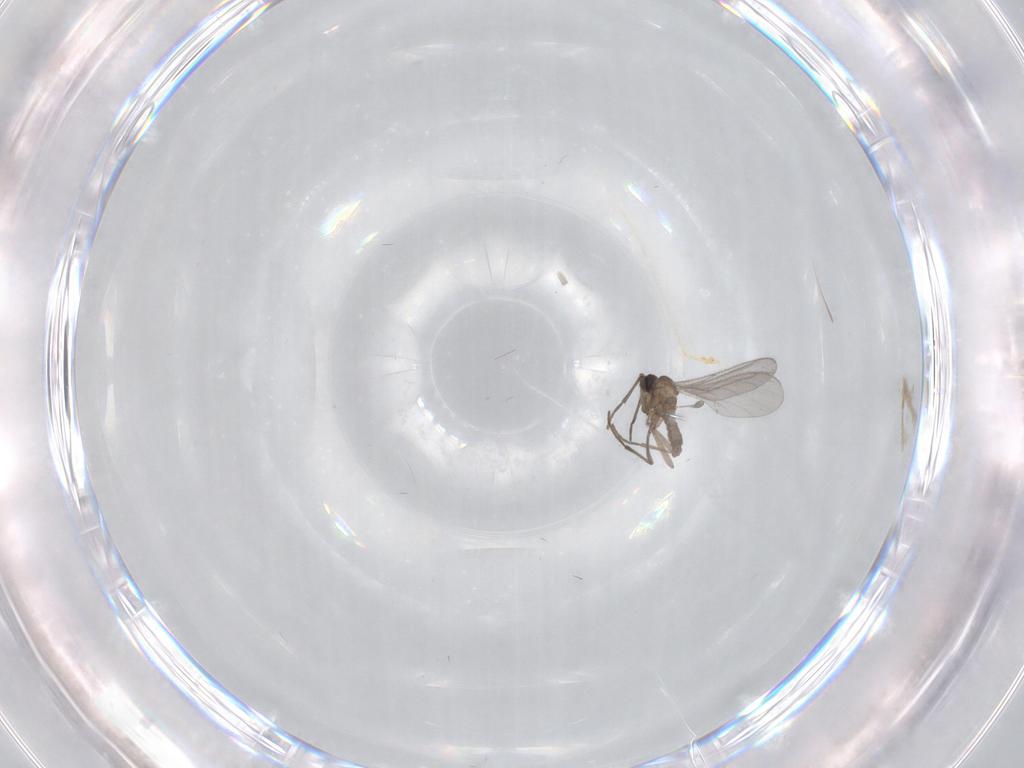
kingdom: Animalia
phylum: Arthropoda
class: Insecta
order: Diptera
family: Sciaridae
